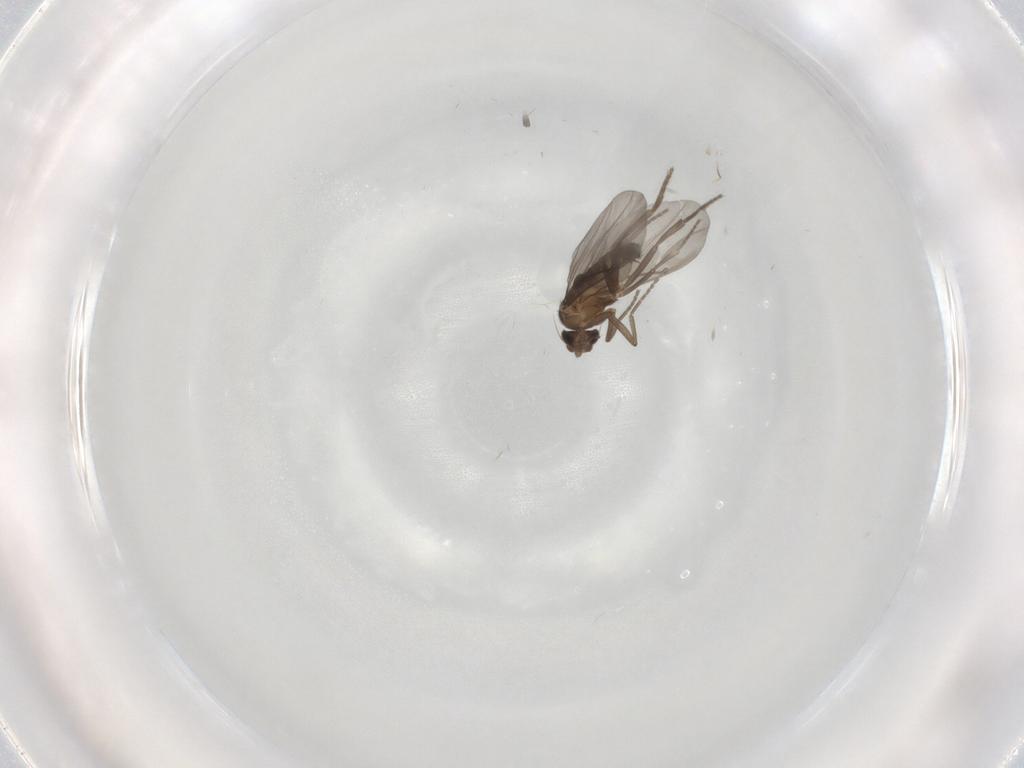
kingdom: Animalia
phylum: Arthropoda
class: Insecta
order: Diptera
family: Cecidomyiidae
